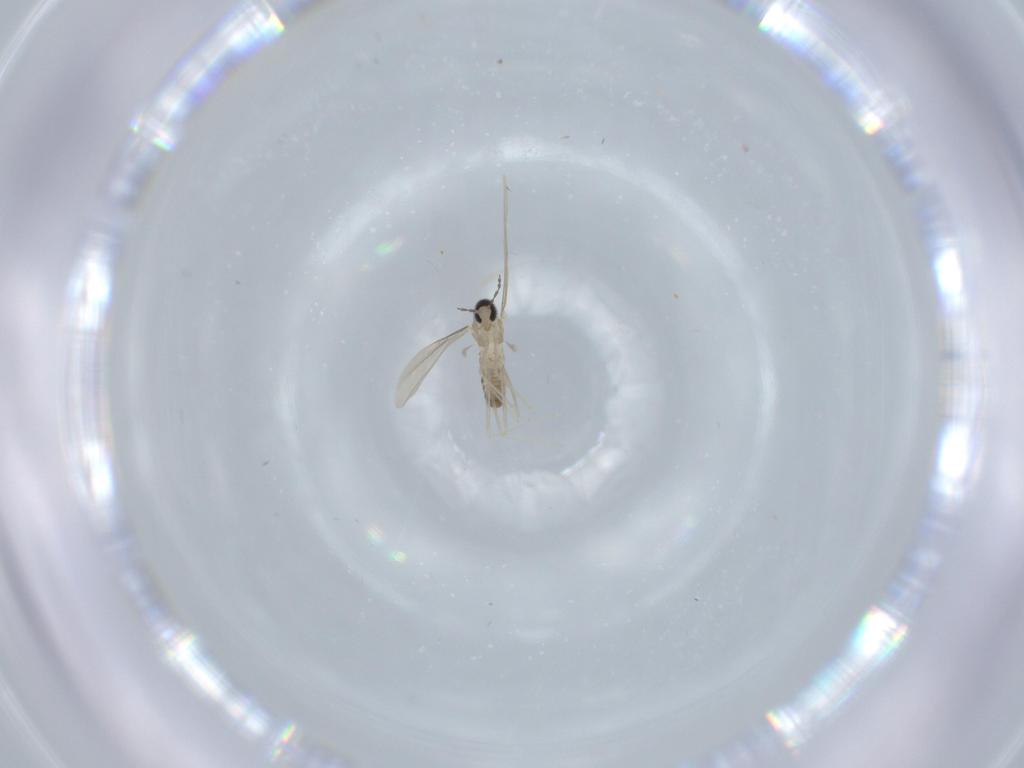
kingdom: Animalia
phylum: Arthropoda
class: Insecta
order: Diptera
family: Cecidomyiidae
